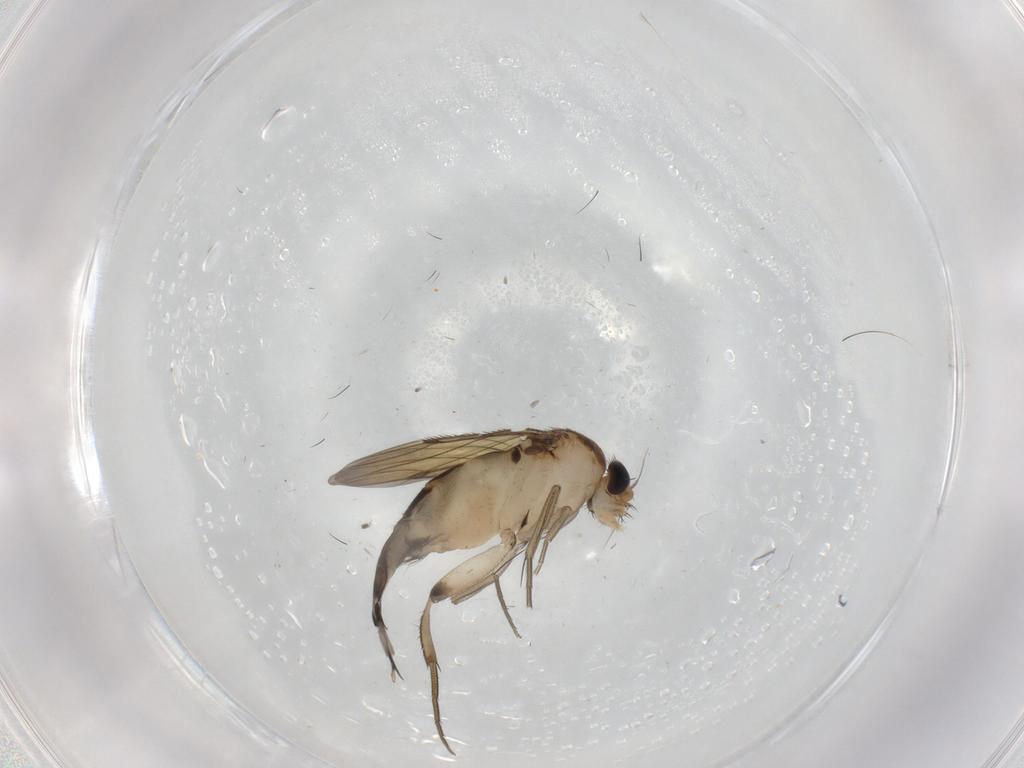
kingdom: Animalia
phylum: Arthropoda
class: Insecta
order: Diptera
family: Phoridae
